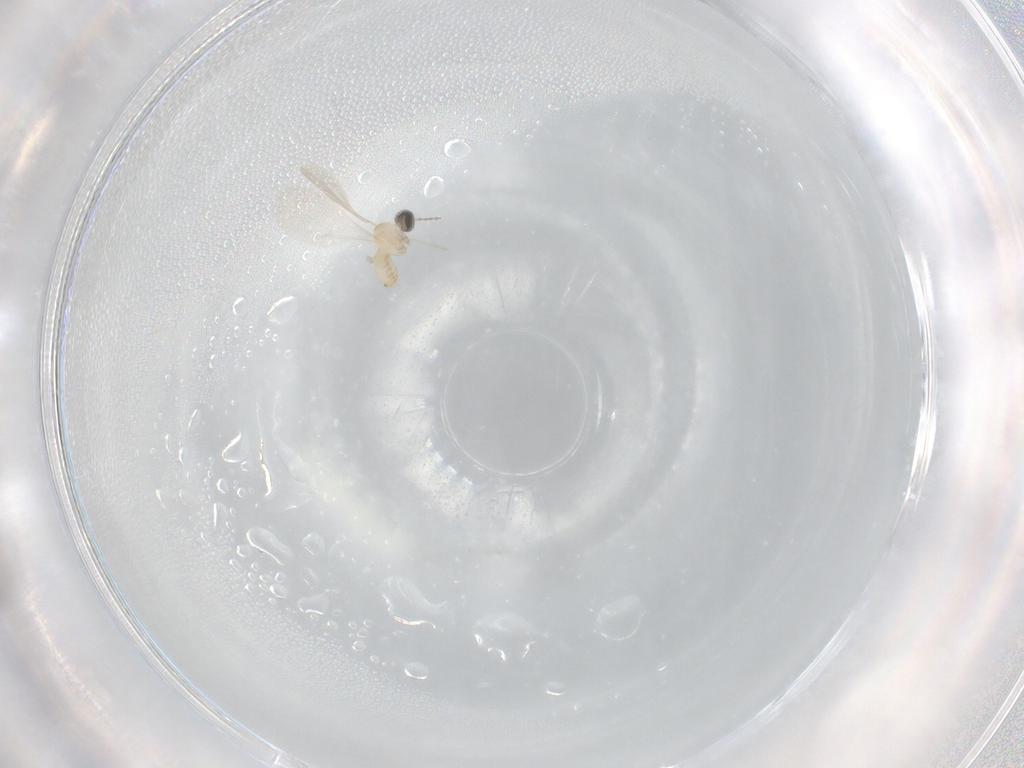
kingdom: Animalia
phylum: Arthropoda
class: Insecta
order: Diptera
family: Cecidomyiidae
